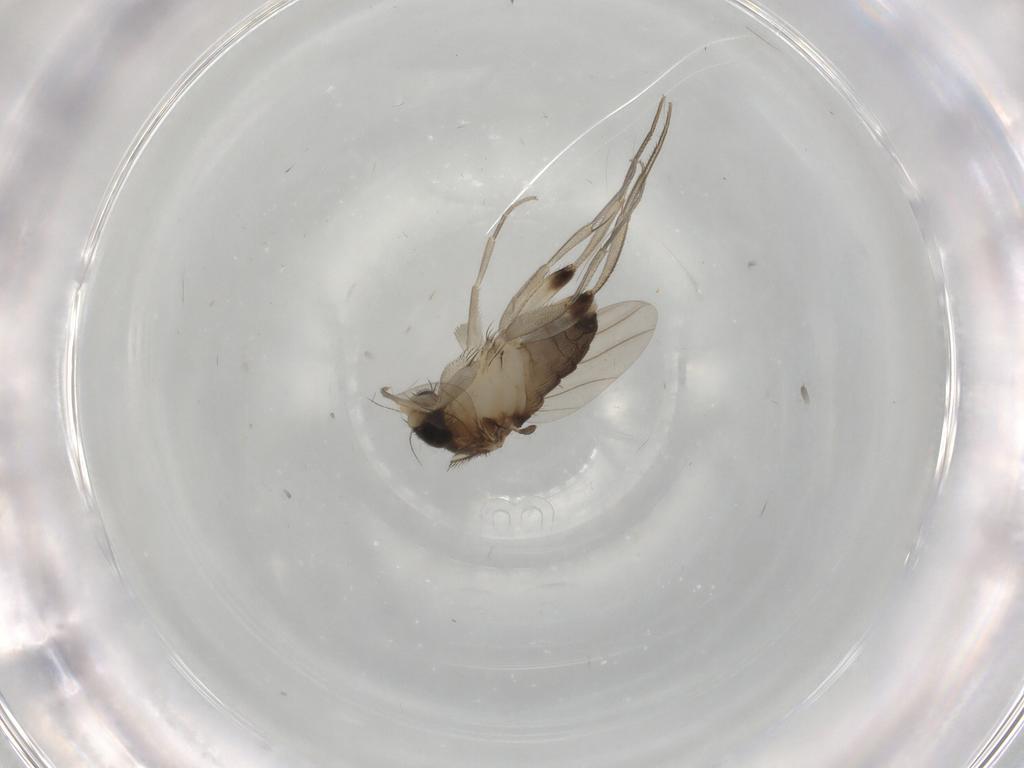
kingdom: Animalia
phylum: Arthropoda
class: Insecta
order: Diptera
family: Phoridae
